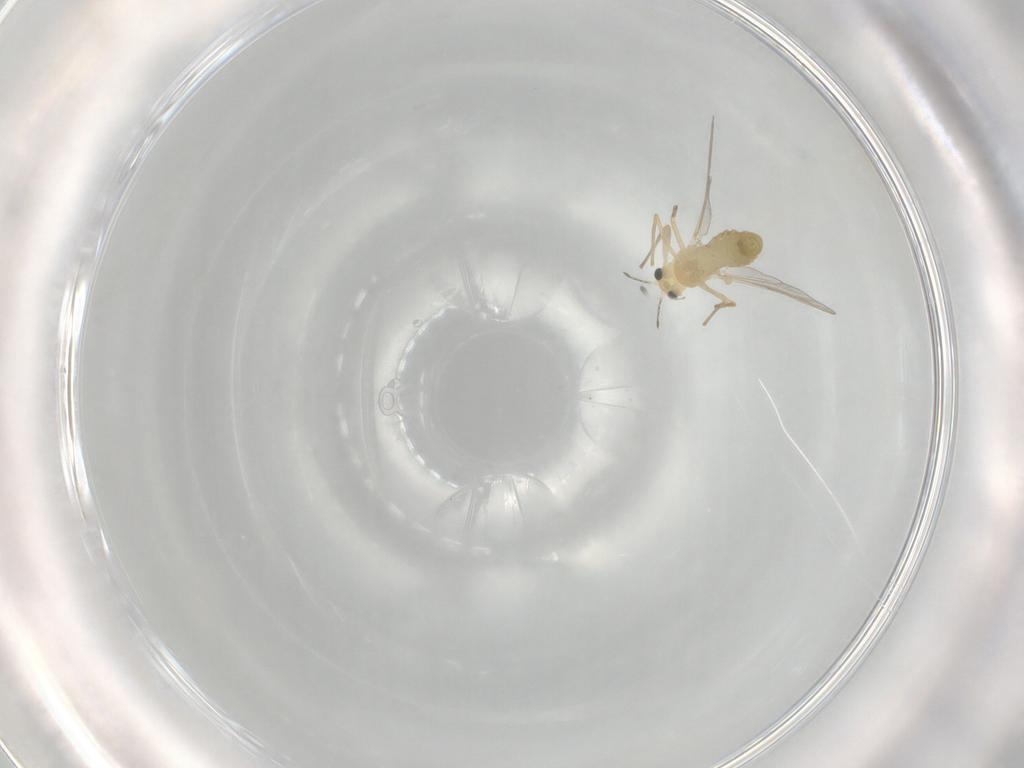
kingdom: Animalia
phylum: Arthropoda
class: Insecta
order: Diptera
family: Chironomidae
